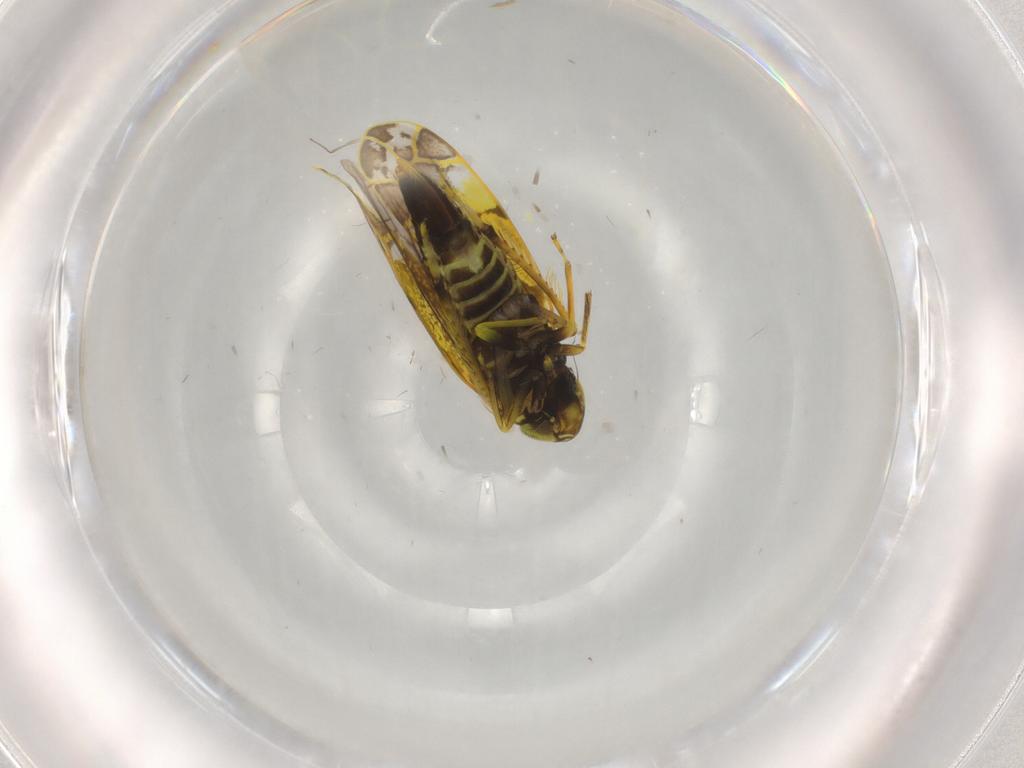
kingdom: Animalia
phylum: Arthropoda
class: Insecta
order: Hemiptera
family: Cicadellidae
